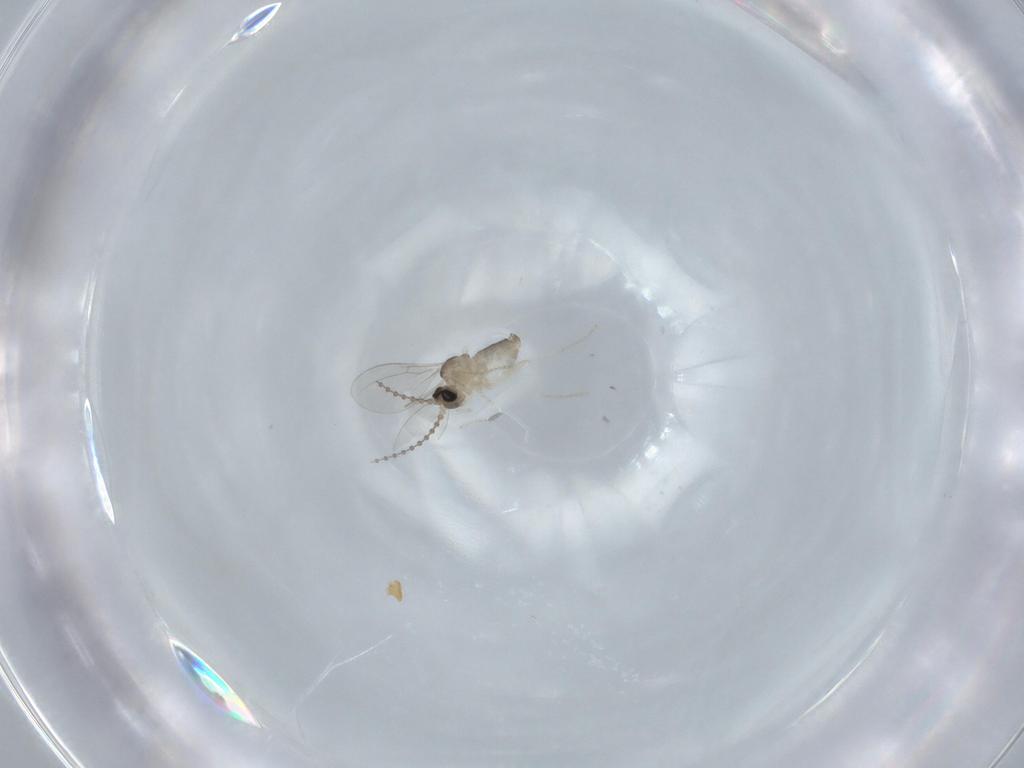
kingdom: Animalia
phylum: Arthropoda
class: Insecta
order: Diptera
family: Cecidomyiidae
